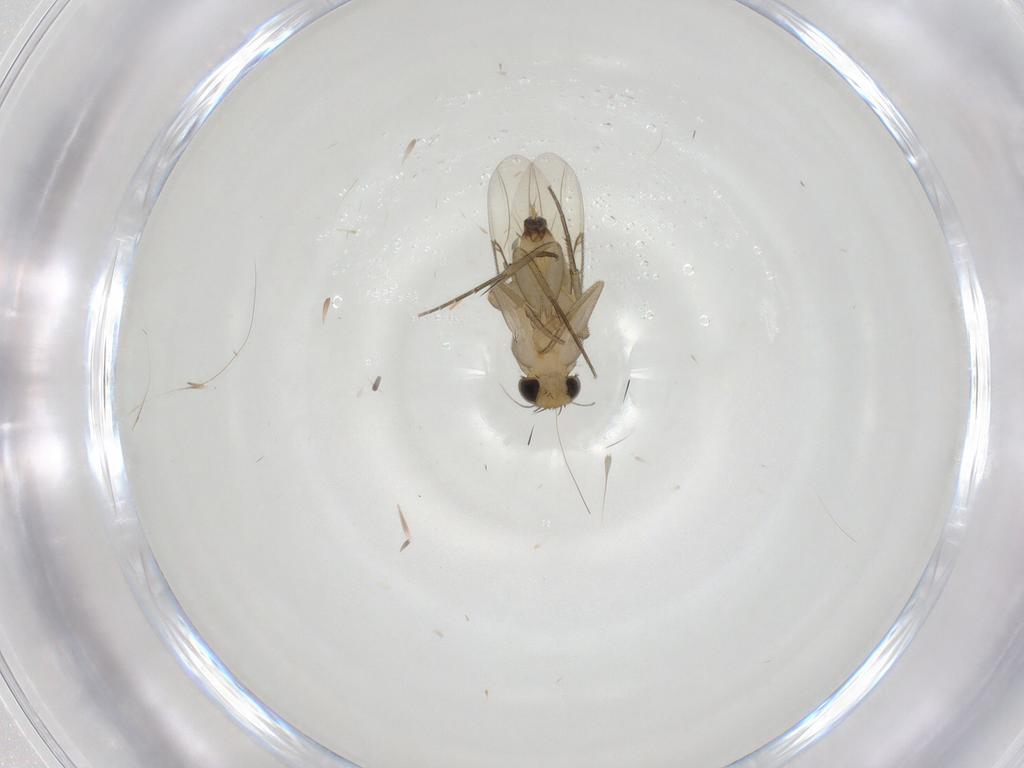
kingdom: Animalia
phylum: Arthropoda
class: Insecta
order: Diptera
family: Phoridae
